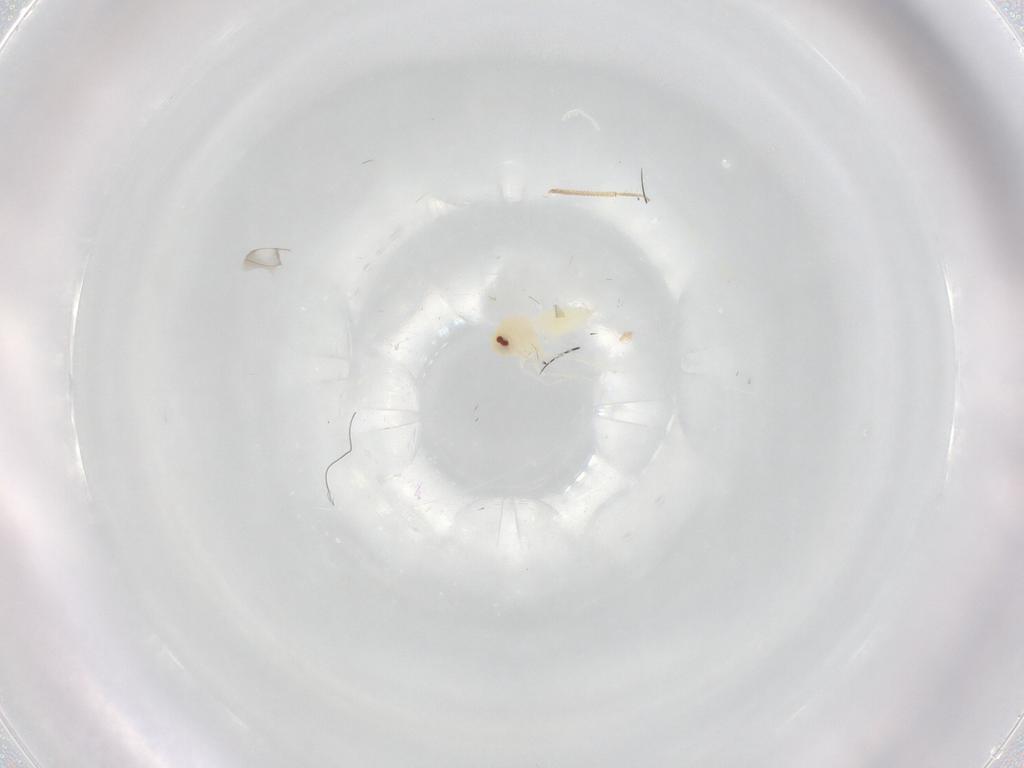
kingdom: Animalia
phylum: Arthropoda
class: Insecta
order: Hemiptera
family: Aleyrodidae
